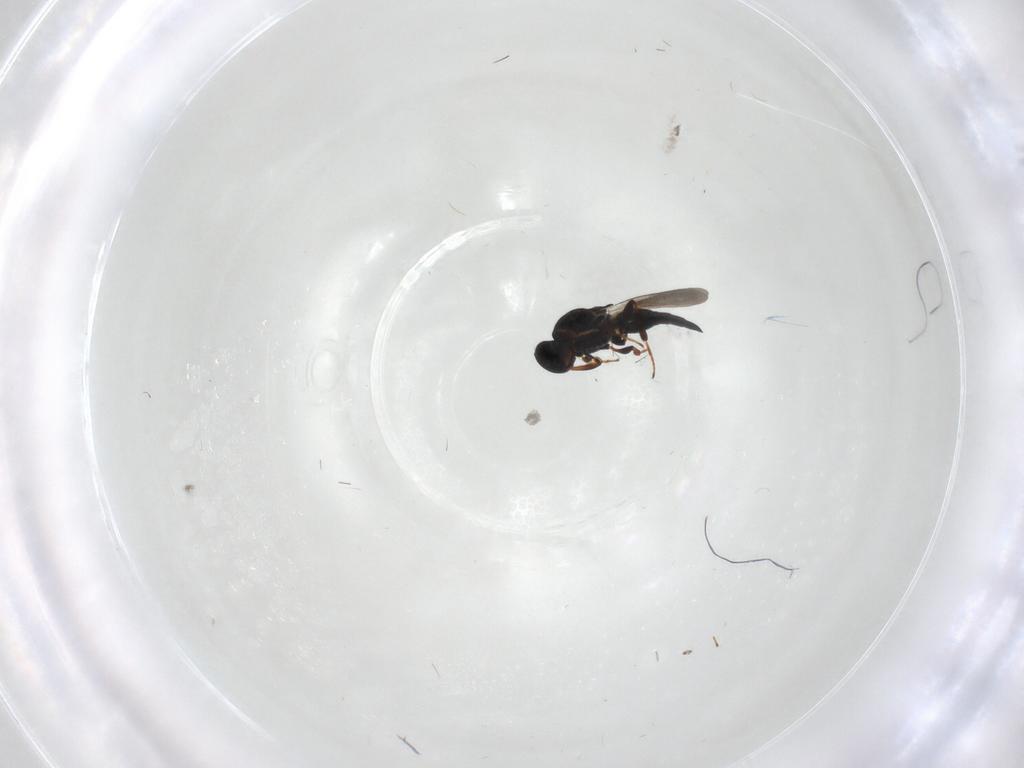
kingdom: Animalia
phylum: Arthropoda
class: Insecta
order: Hymenoptera
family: Platygastridae
